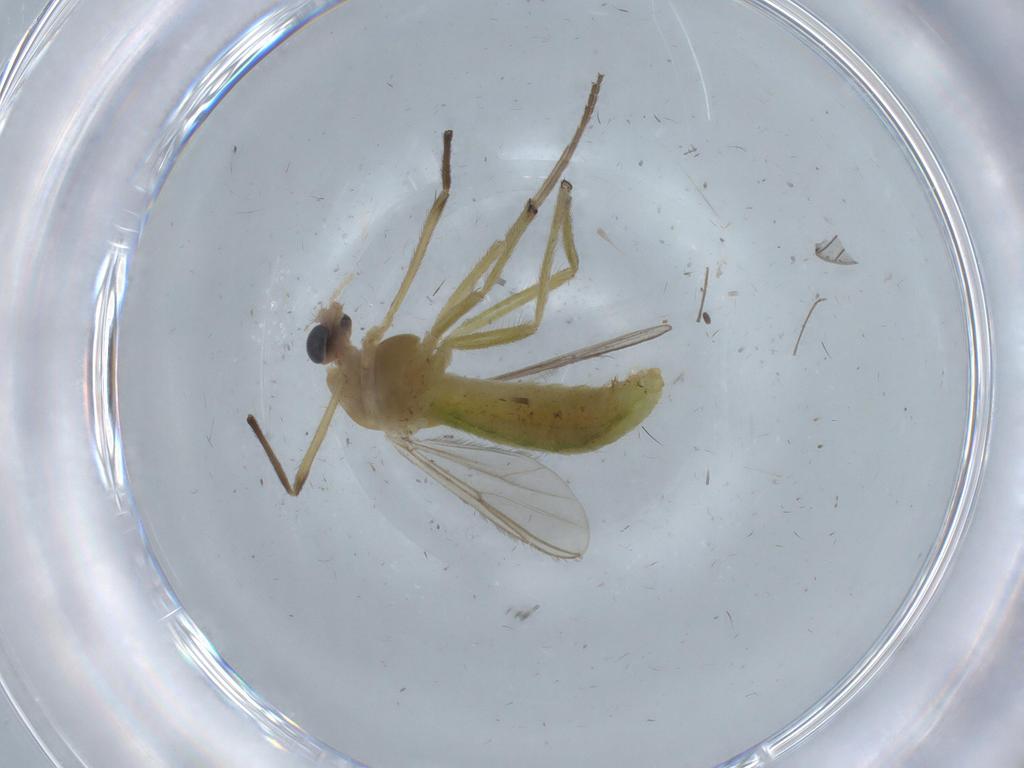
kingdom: Animalia
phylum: Arthropoda
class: Insecta
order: Diptera
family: Chironomidae
